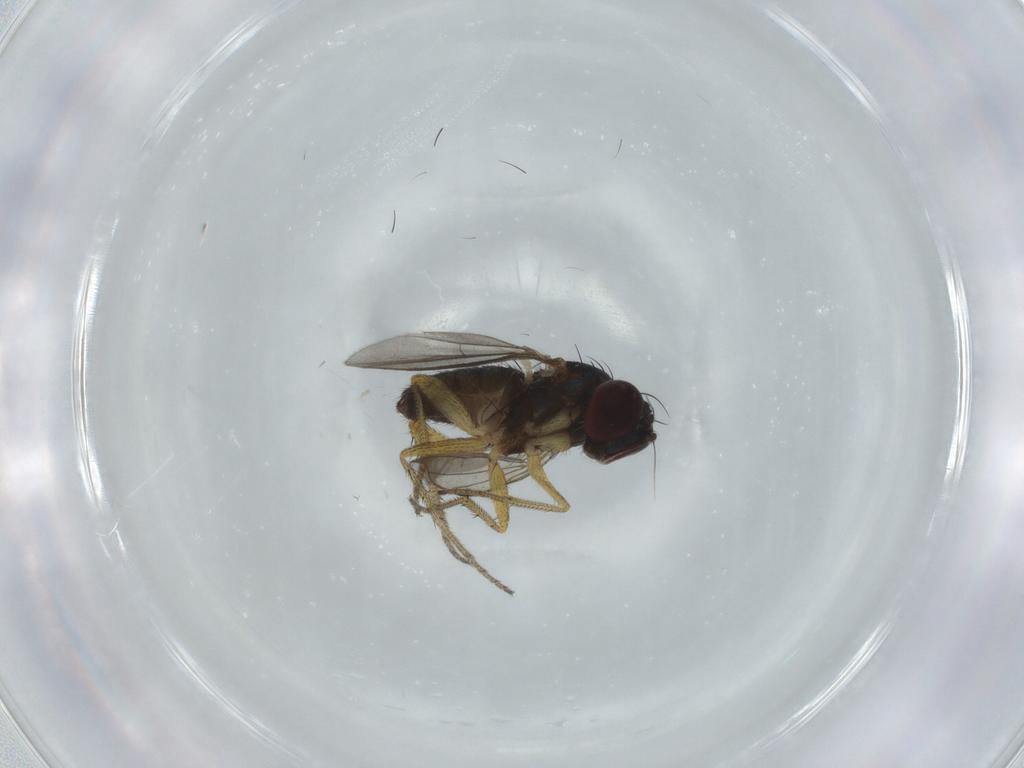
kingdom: Animalia
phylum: Arthropoda
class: Insecta
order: Diptera
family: Dolichopodidae
